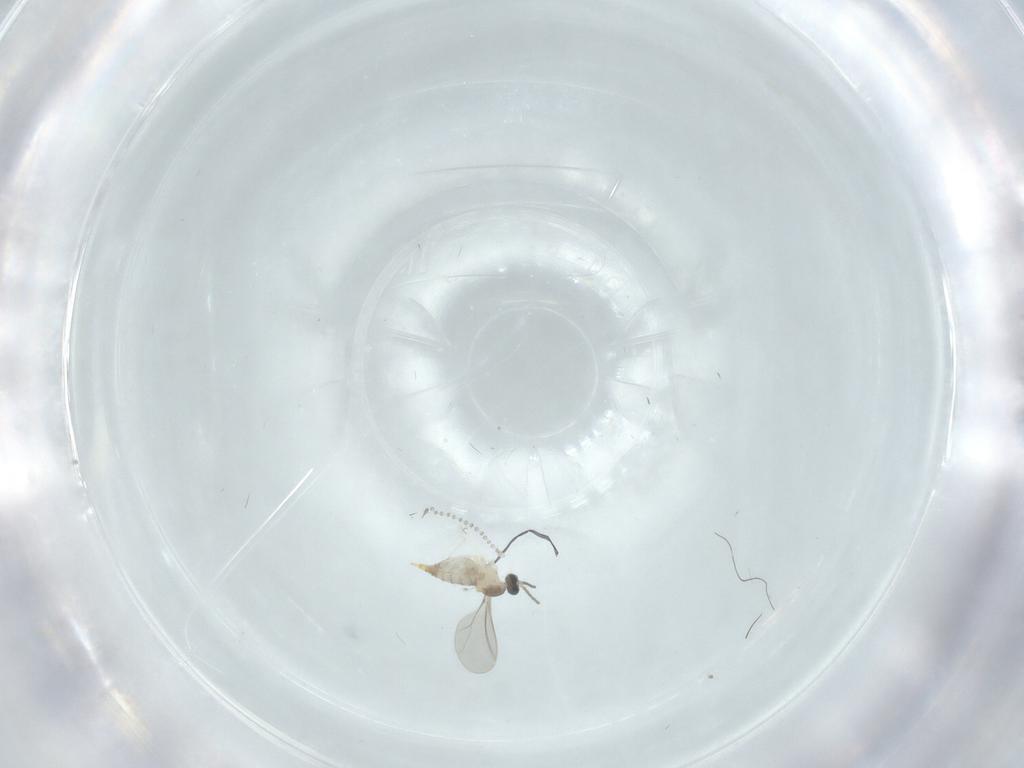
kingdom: Animalia
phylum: Arthropoda
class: Insecta
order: Diptera
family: Cecidomyiidae
